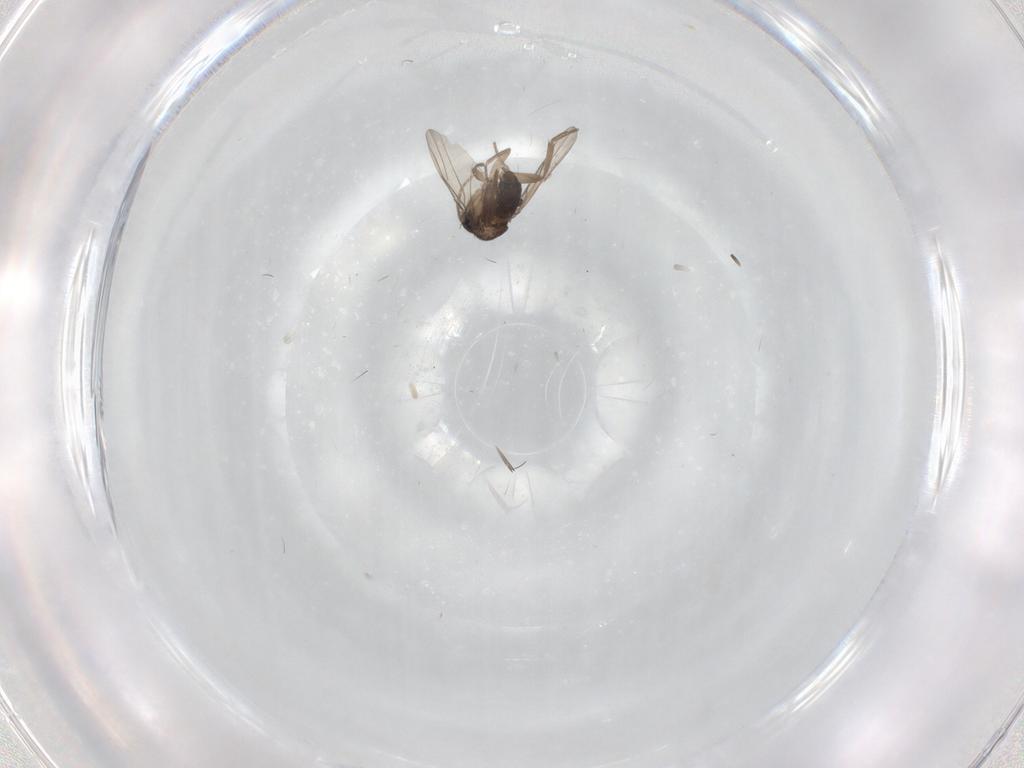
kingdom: Animalia
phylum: Arthropoda
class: Insecta
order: Diptera
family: Phoridae
